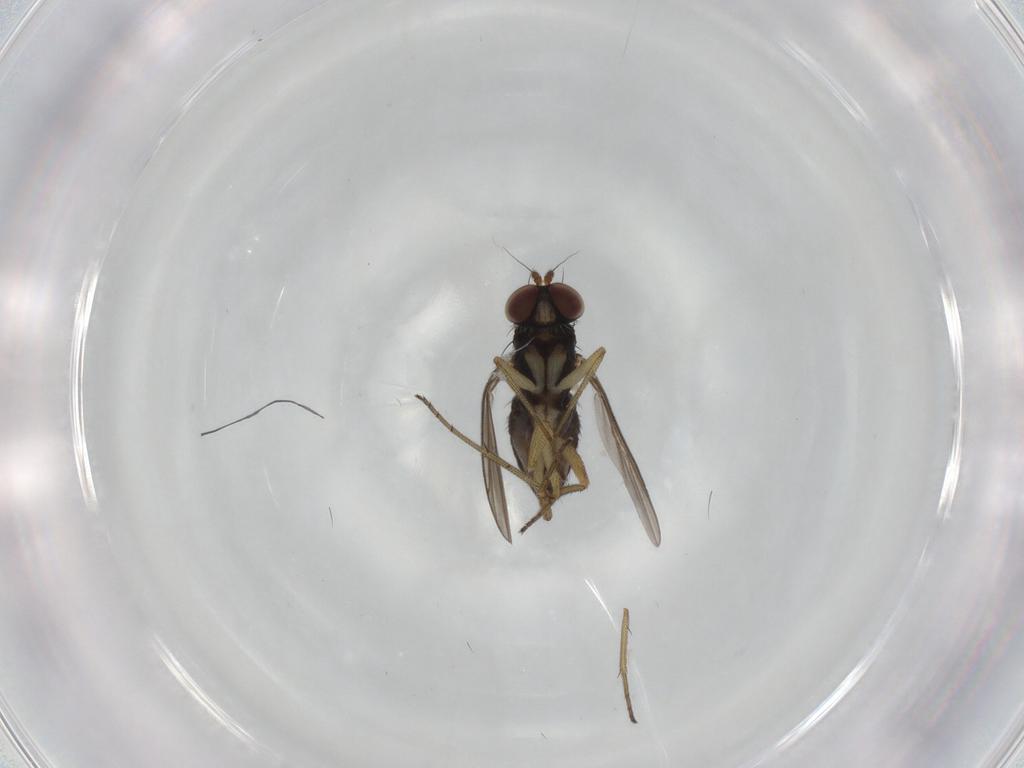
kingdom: Animalia
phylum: Arthropoda
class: Insecta
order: Diptera
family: Dolichopodidae
